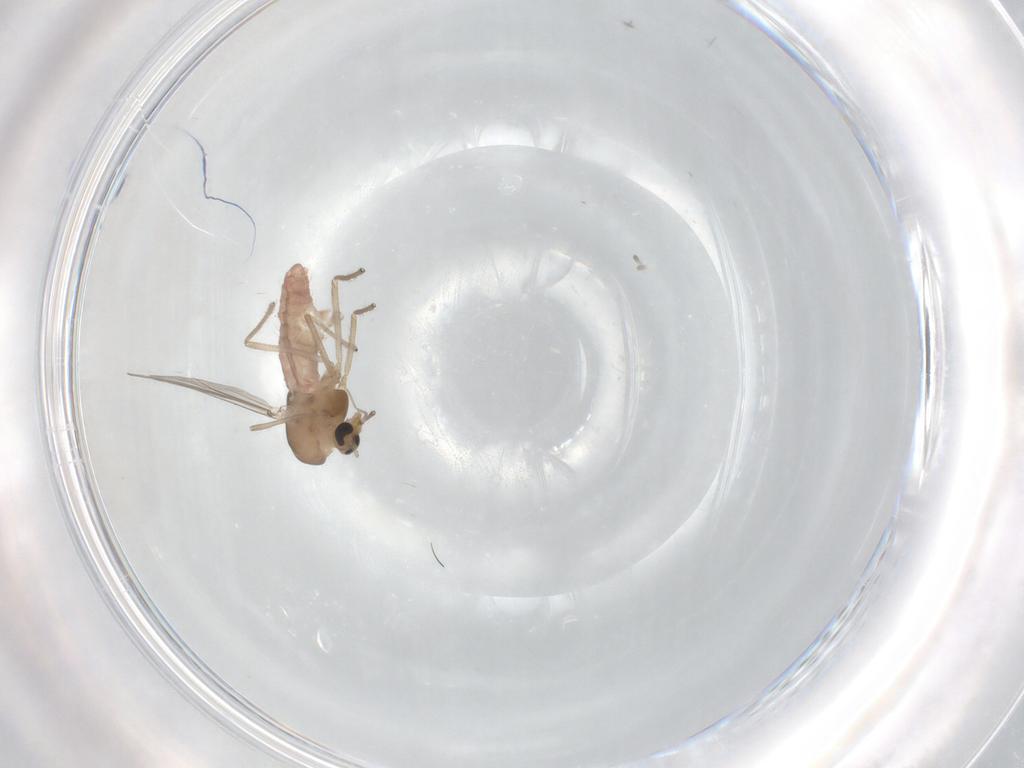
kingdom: Animalia
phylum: Arthropoda
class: Insecta
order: Diptera
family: Chironomidae
